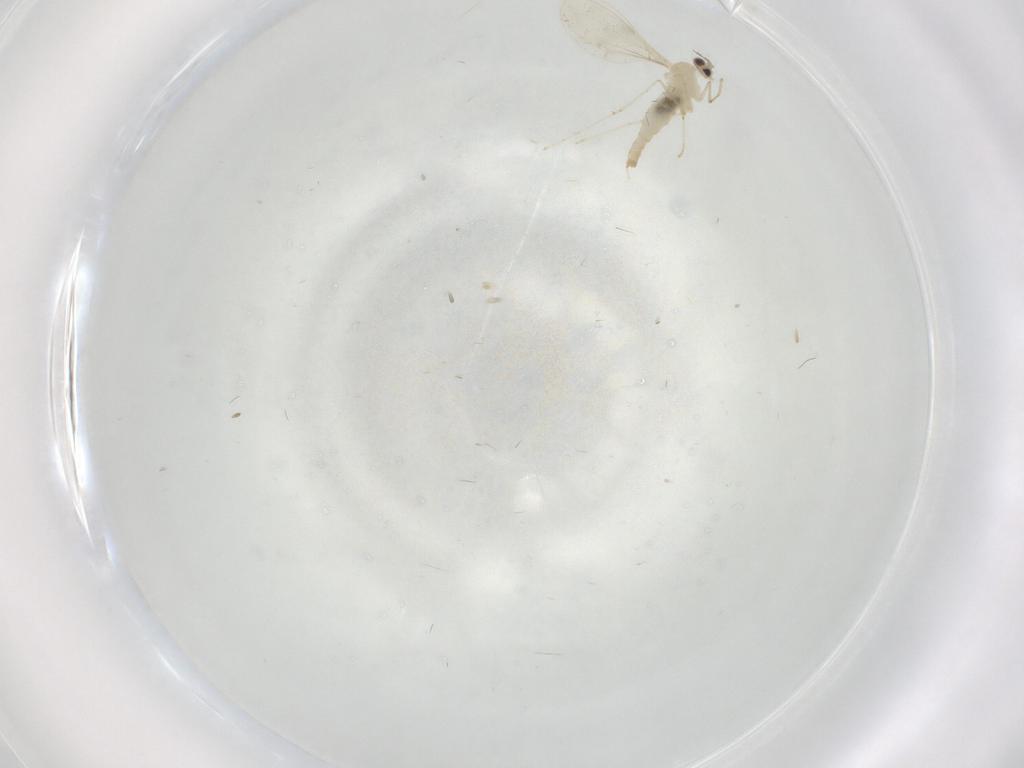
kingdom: Animalia
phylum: Arthropoda
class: Insecta
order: Diptera
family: Cecidomyiidae
